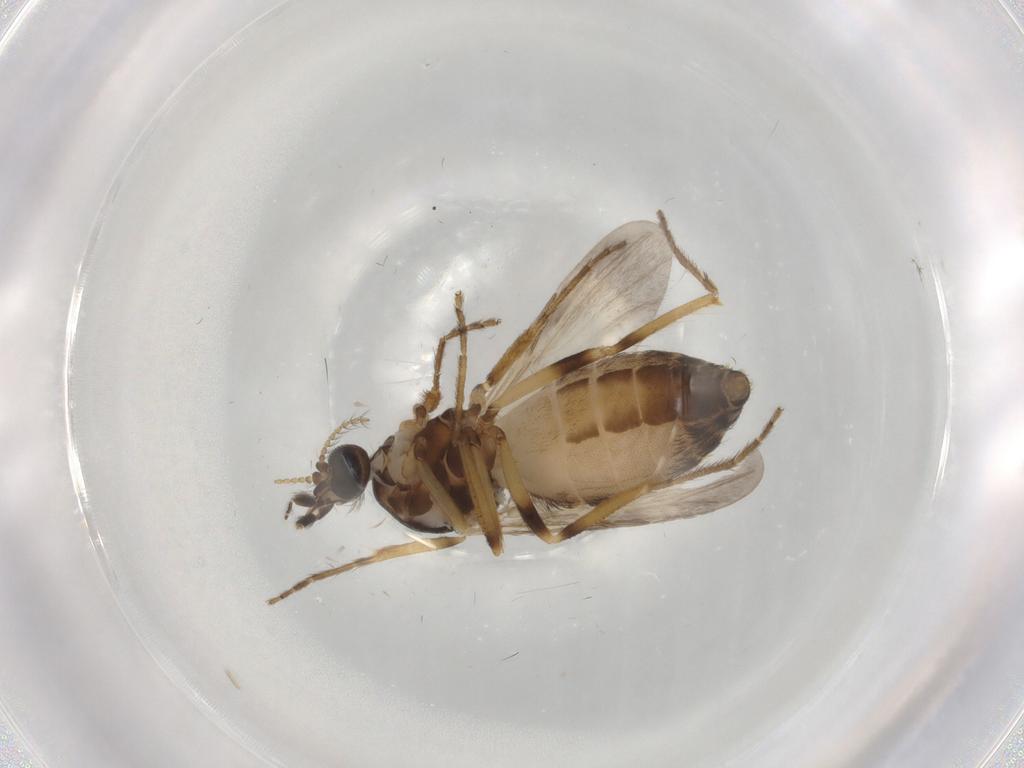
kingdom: Animalia
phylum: Arthropoda
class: Insecta
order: Diptera
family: Ceratopogonidae
